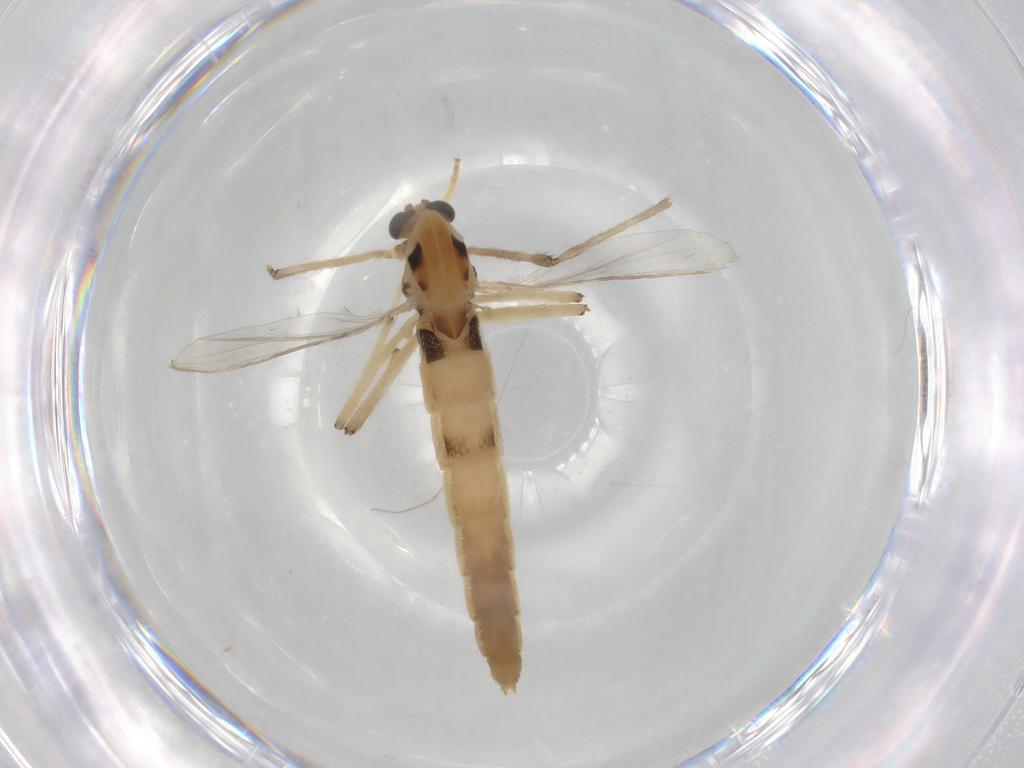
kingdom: Animalia
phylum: Arthropoda
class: Insecta
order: Diptera
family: Chironomidae
